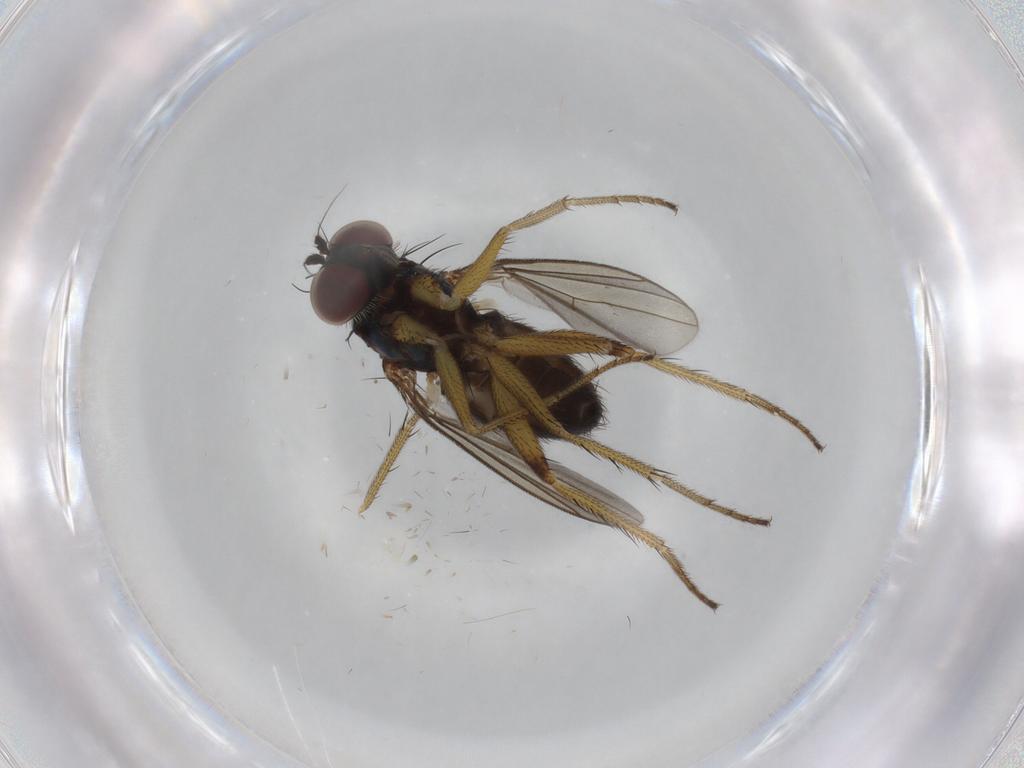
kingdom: Animalia
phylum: Arthropoda
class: Insecta
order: Diptera
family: Dolichopodidae
